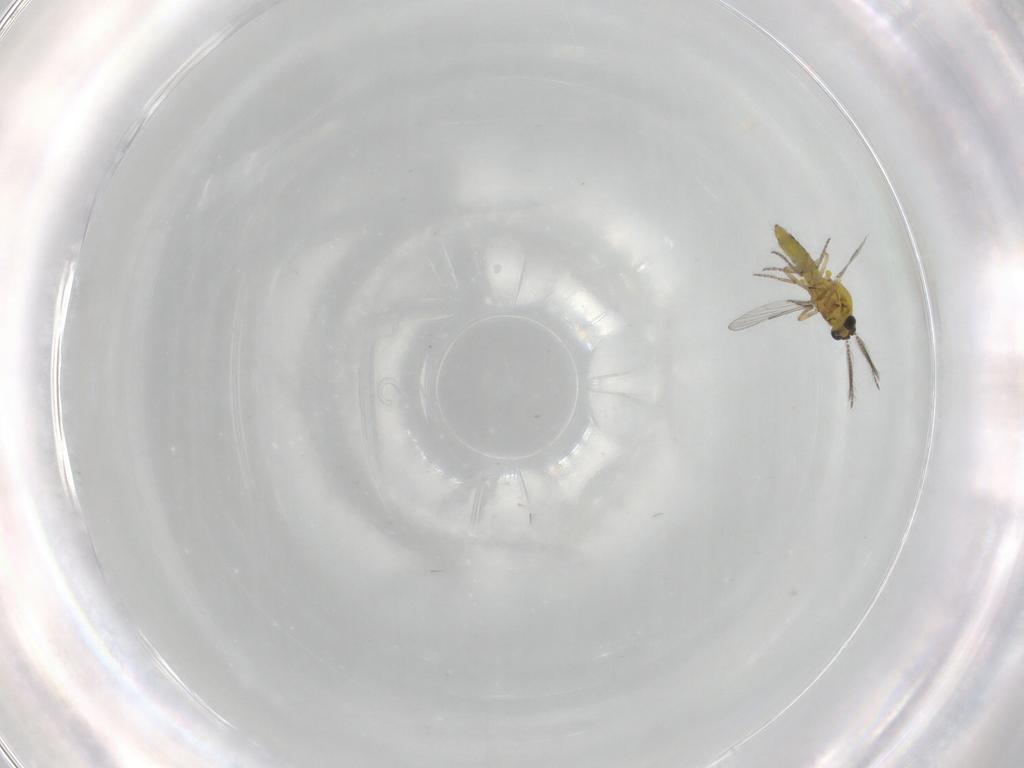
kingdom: Animalia
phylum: Arthropoda
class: Insecta
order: Diptera
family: Ceratopogonidae
